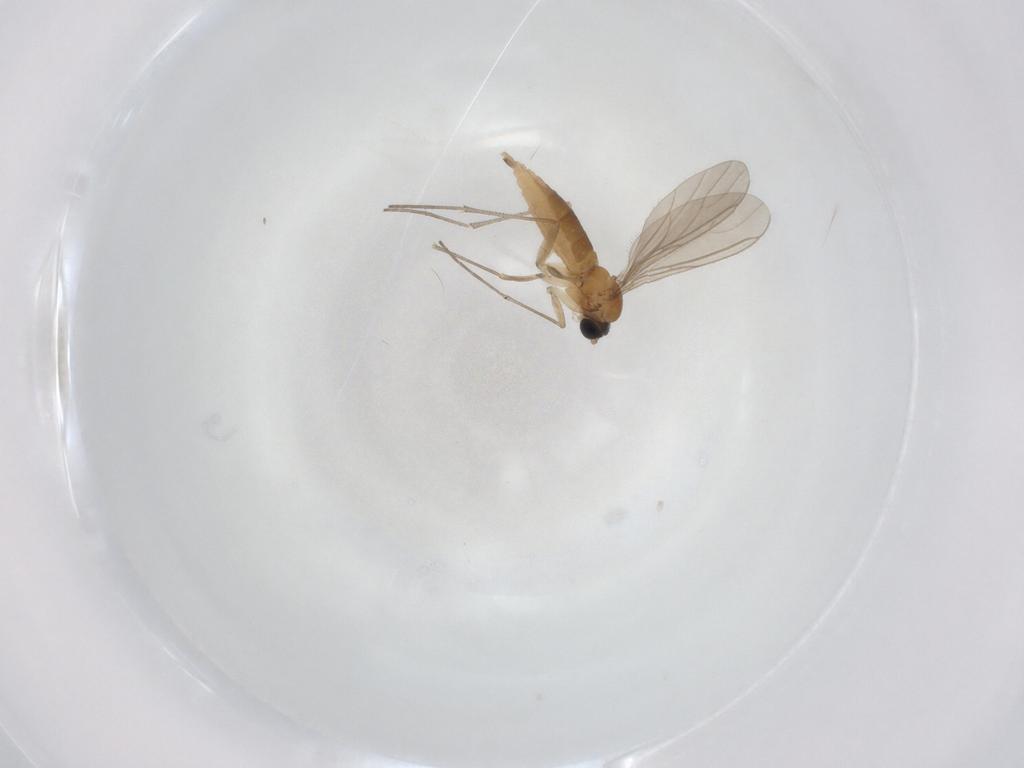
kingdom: Animalia
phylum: Arthropoda
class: Insecta
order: Diptera
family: Sciaridae
